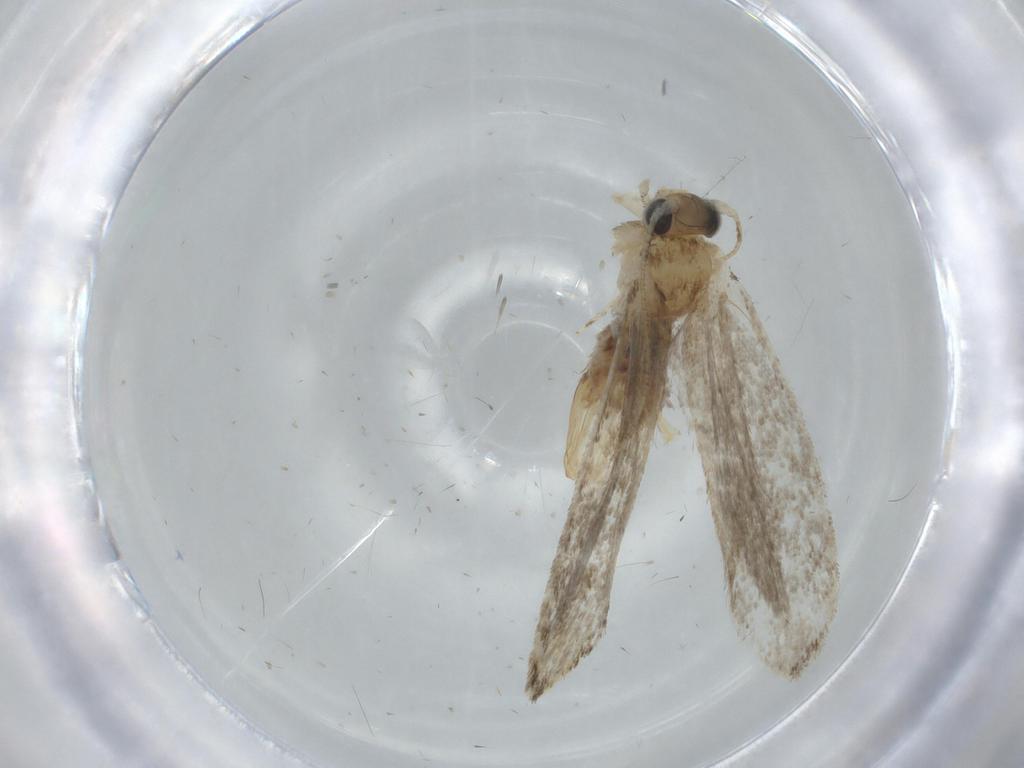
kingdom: Animalia
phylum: Arthropoda
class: Insecta
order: Lepidoptera
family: Tineidae
